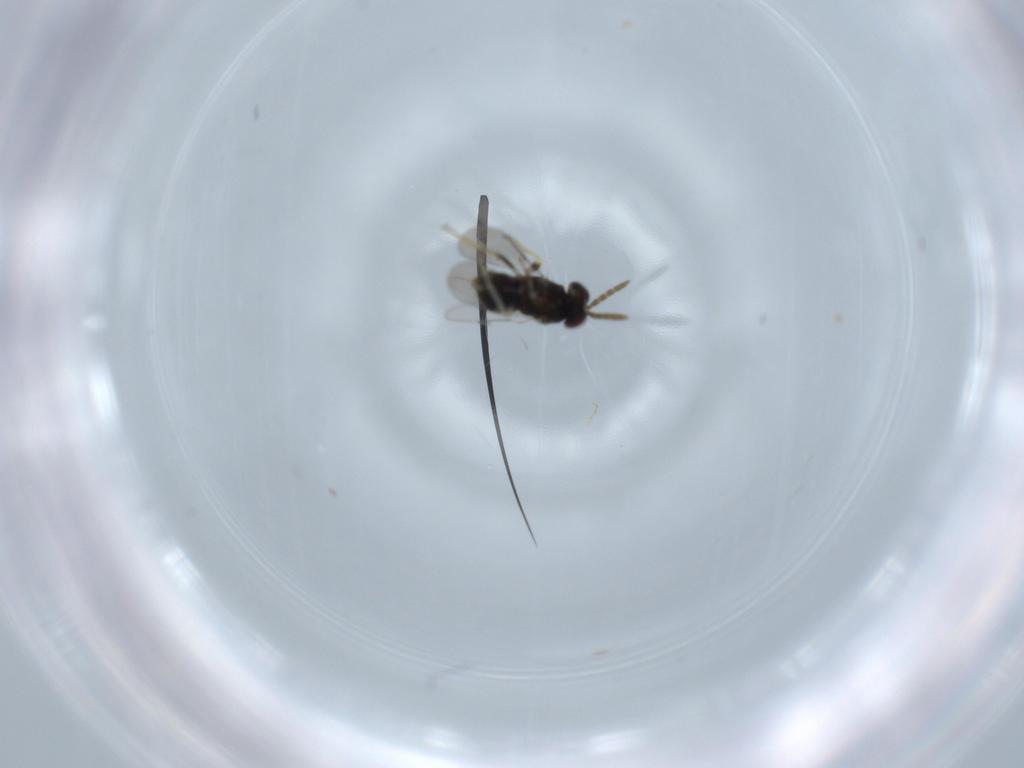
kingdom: Animalia
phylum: Arthropoda
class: Insecta
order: Hymenoptera
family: Aphelinidae
